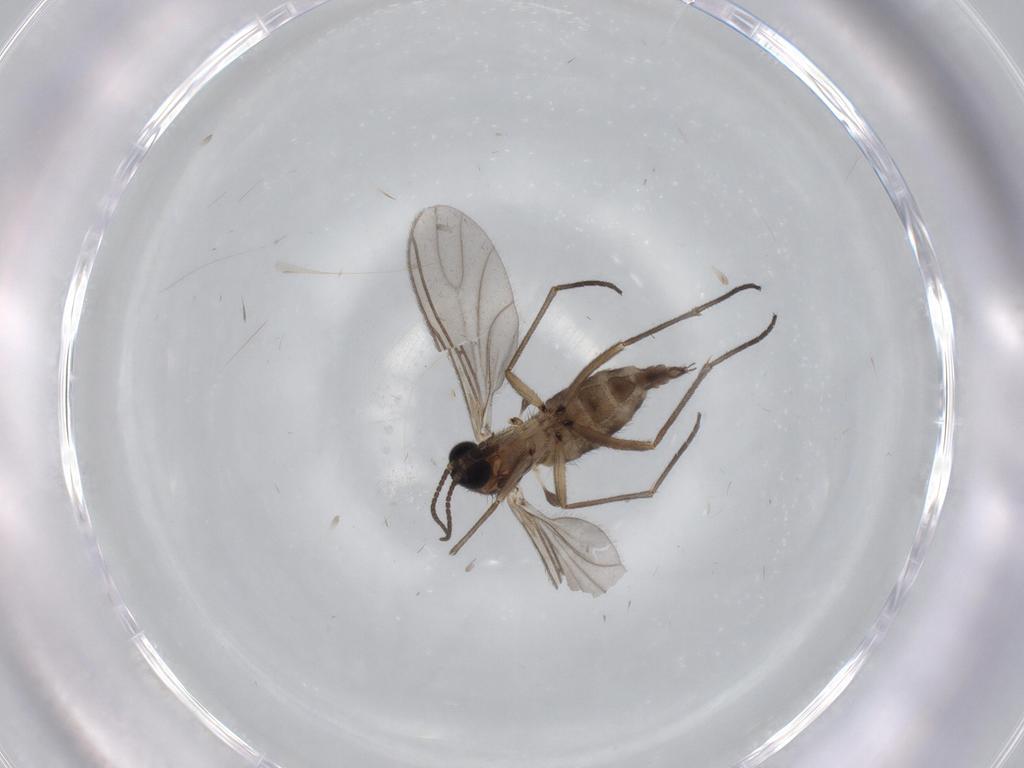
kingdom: Animalia
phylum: Arthropoda
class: Insecta
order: Diptera
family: Sciaridae
